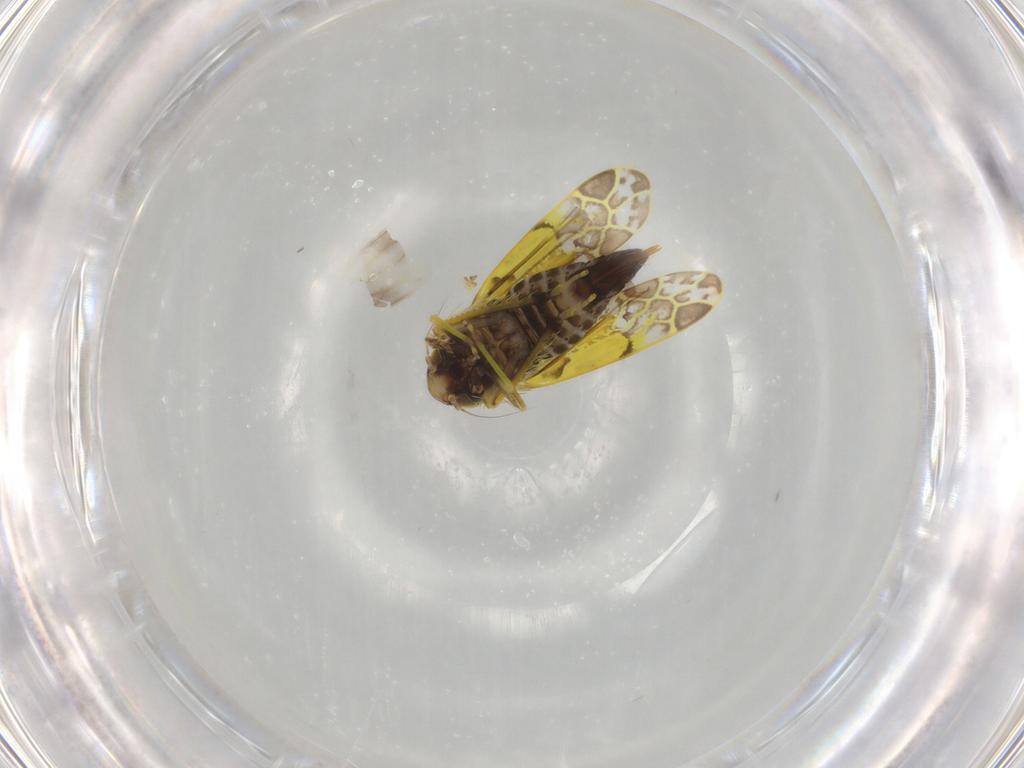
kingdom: Animalia
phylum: Arthropoda
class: Insecta
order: Hemiptera
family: Cicadellidae
